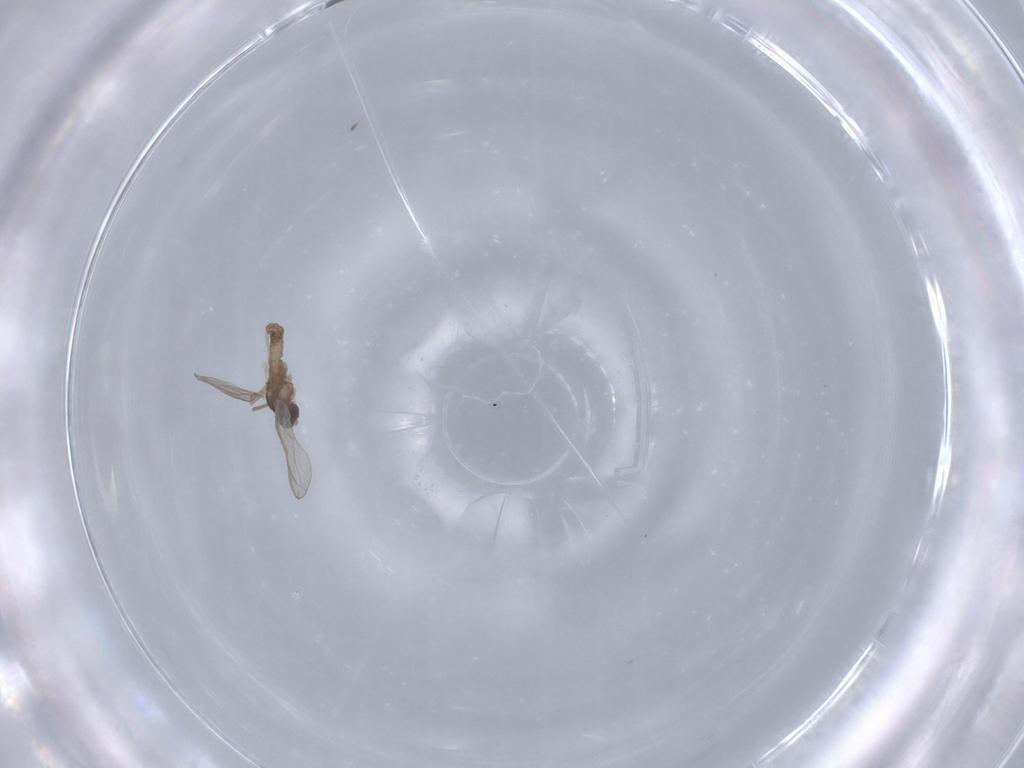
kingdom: Animalia
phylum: Arthropoda
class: Insecta
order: Diptera
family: Cecidomyiidae
